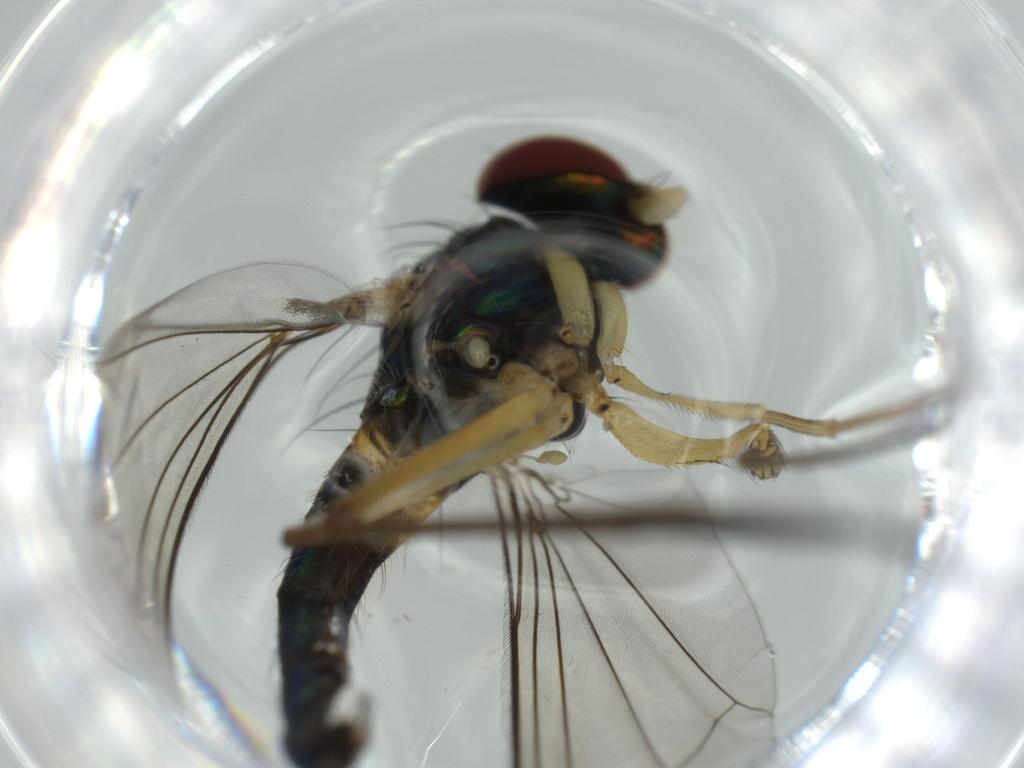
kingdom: Animalia
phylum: Arthropoda
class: Insecta
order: Diptera
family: Dolichopodidae
